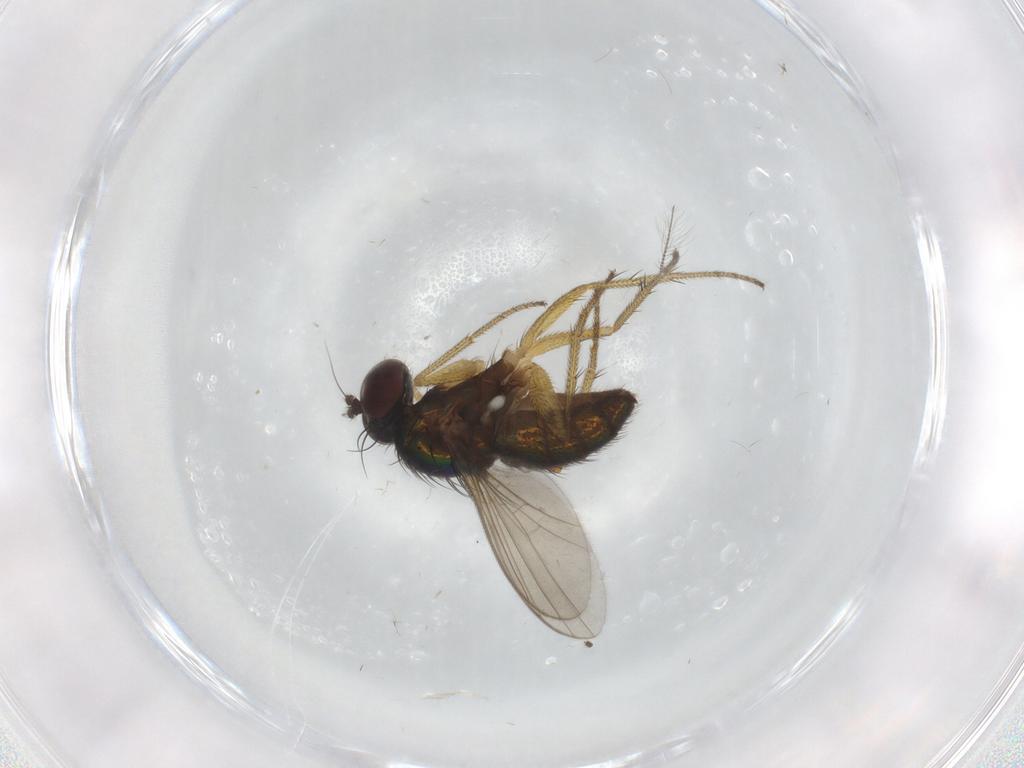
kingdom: Animalia
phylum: Arthropoda
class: Insecta
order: Diptera
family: Dolichopodidae
